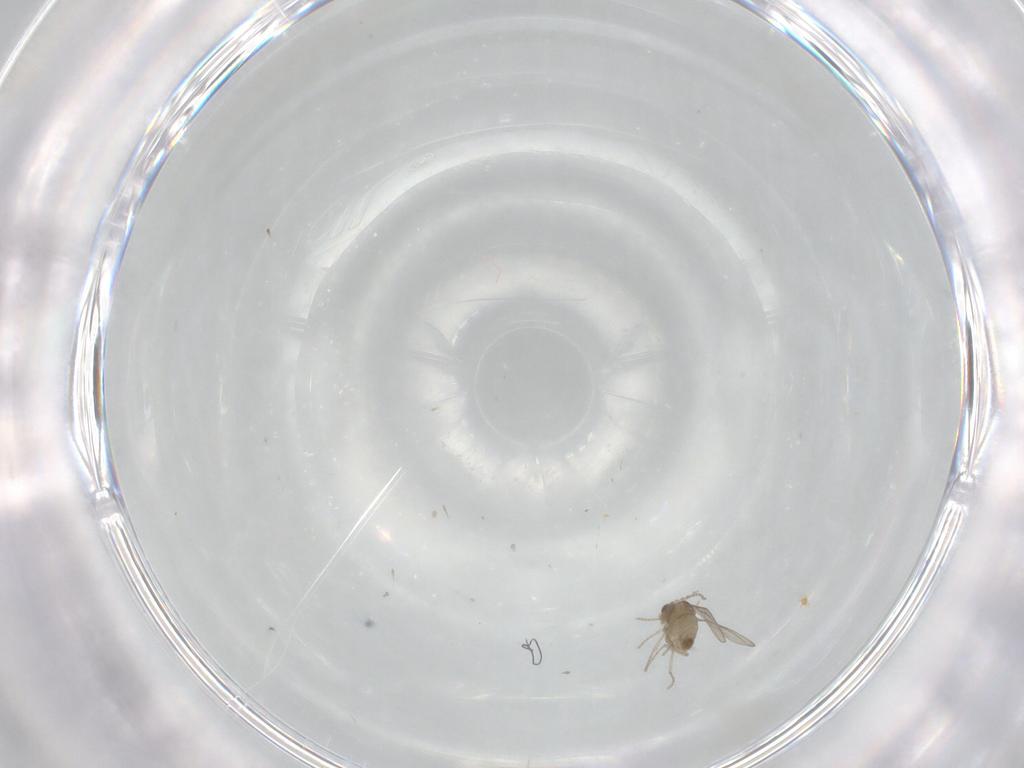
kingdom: Animalia
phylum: Arthropoda
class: Insecta
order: Diptera
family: Cecidomyiidae
